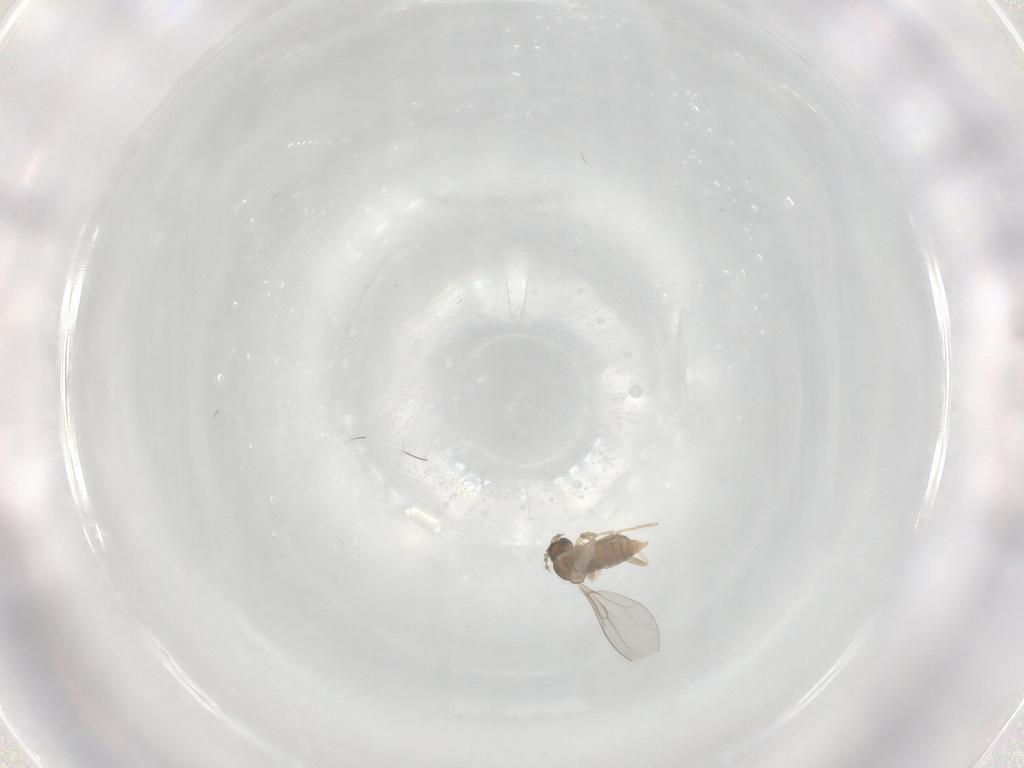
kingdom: Animalia
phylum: Arthropoda
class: Insecta
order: Diptera
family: Cecidomyiidae
